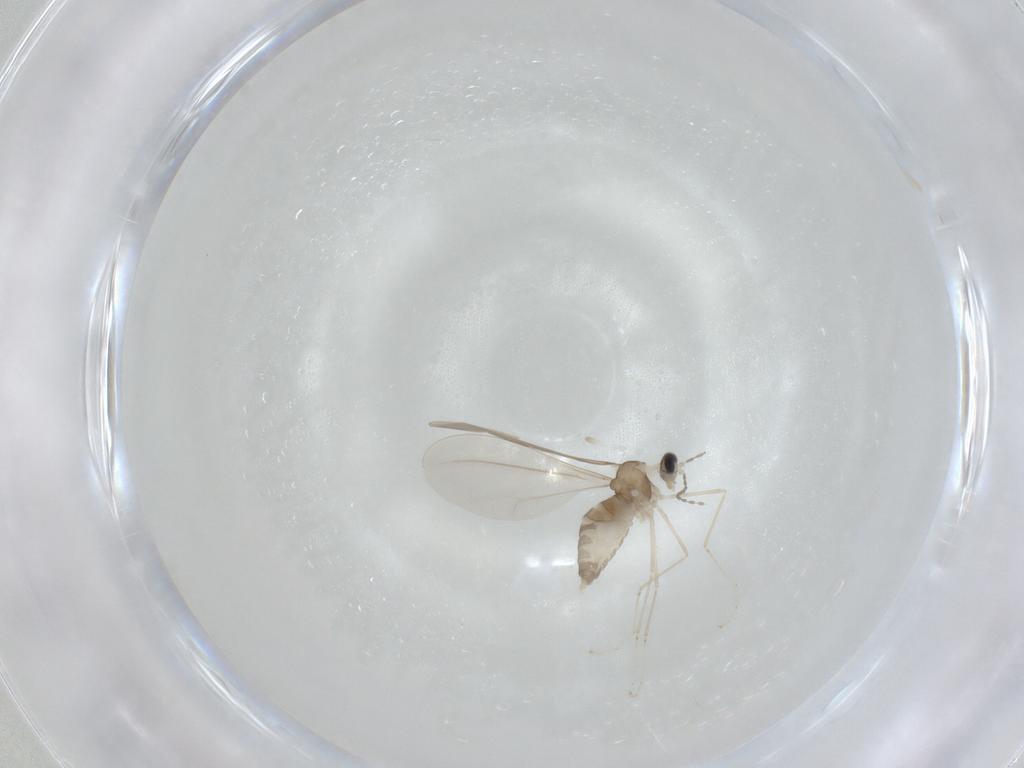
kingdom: Animalia
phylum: Arthropoda
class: Insecta
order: Diptera
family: Cecidomyiidae
